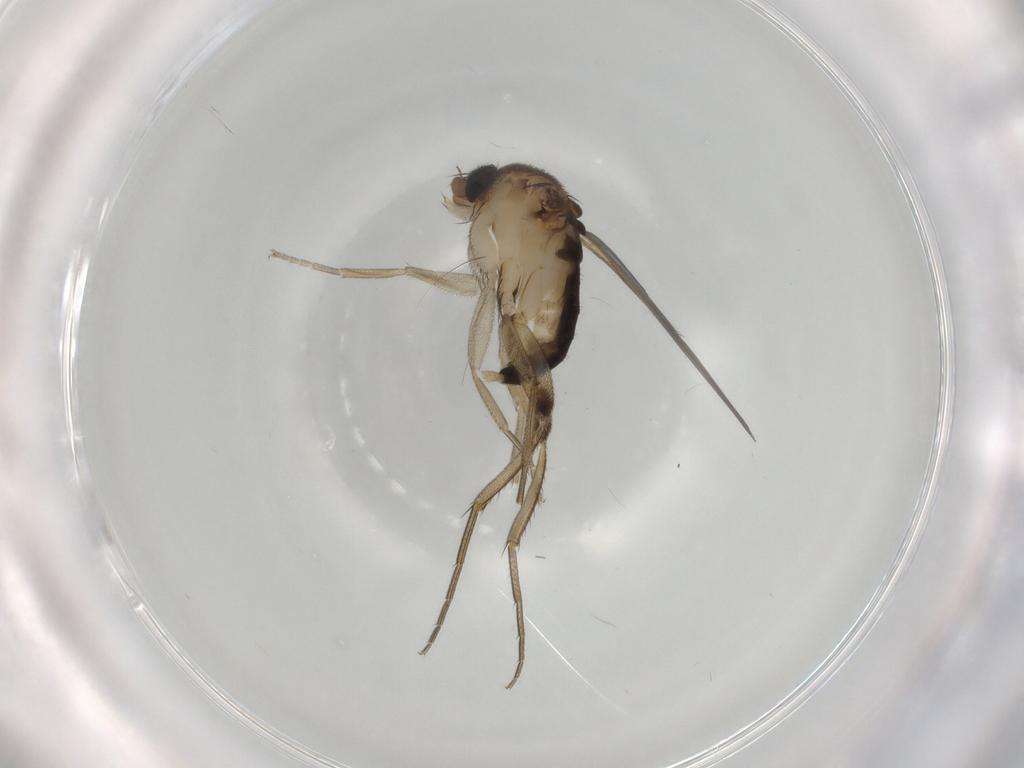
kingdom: Animalia
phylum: Arthropoda
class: Insecta
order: Diptera
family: Phoridae
